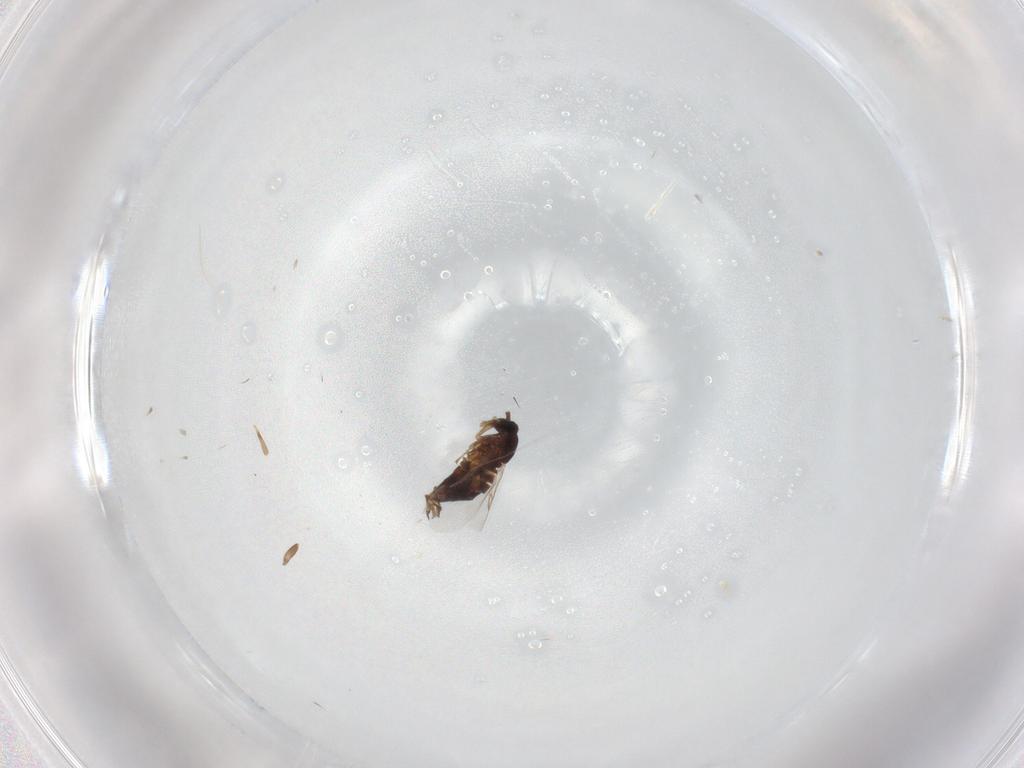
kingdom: Animalia
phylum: Arthropoda
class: Insecta
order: Diptera
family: Scatopsidae
